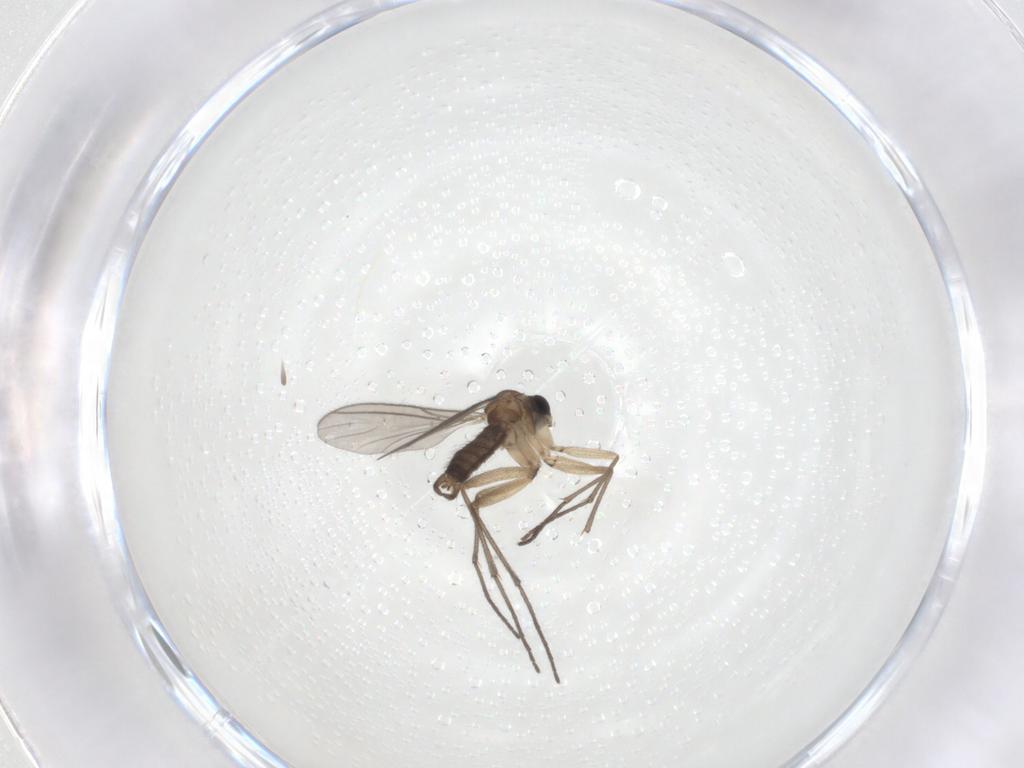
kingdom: Animalia
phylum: Arthropoda
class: Insecta
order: Diptera
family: Sciaridae
